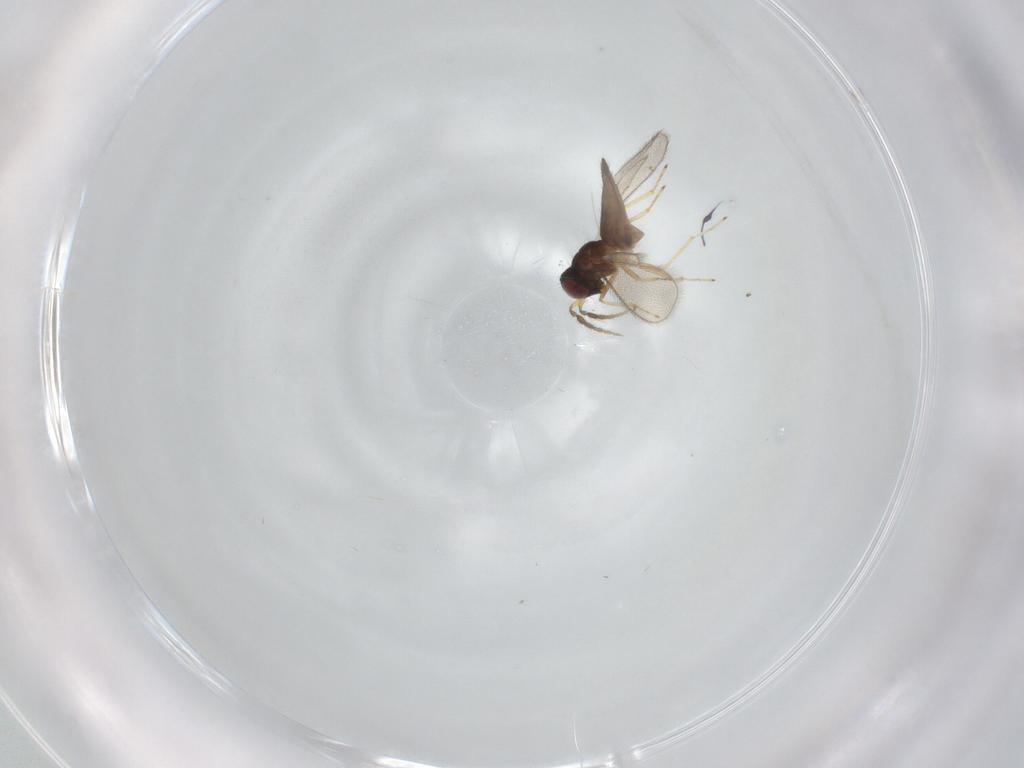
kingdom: Animalia
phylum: Arthropoda
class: Insecta
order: Hymenoptera
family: Eulophidae
